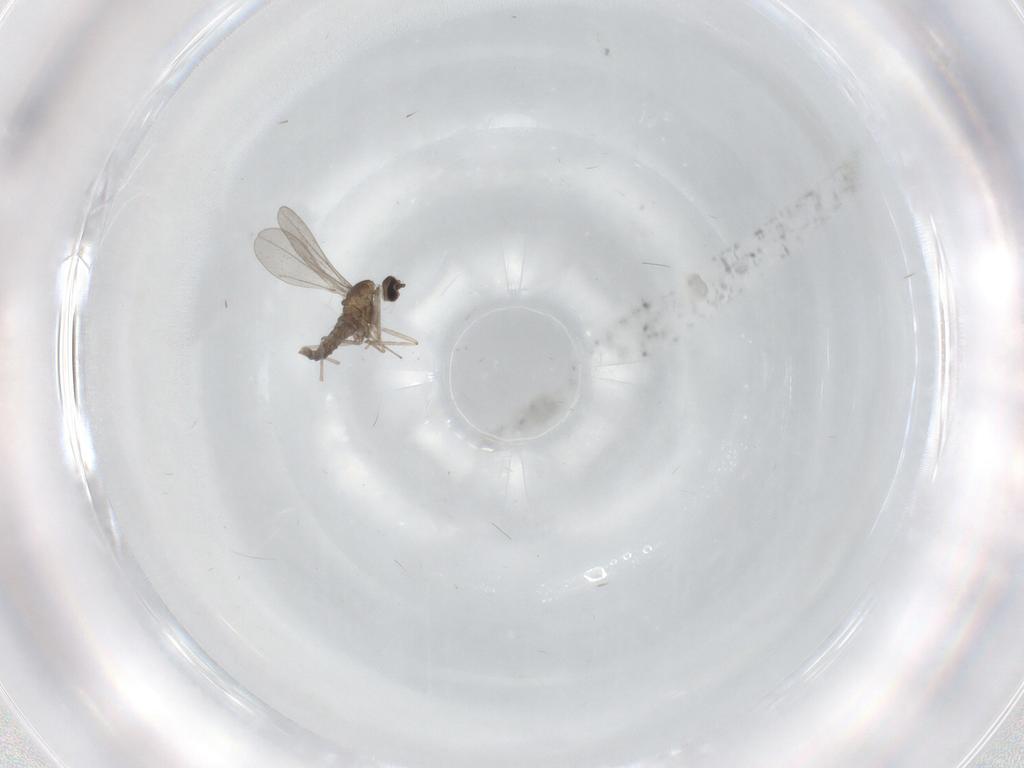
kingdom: Animalia
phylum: Arthropoda
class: Insecta
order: Diptera
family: Cecidomyiidae
